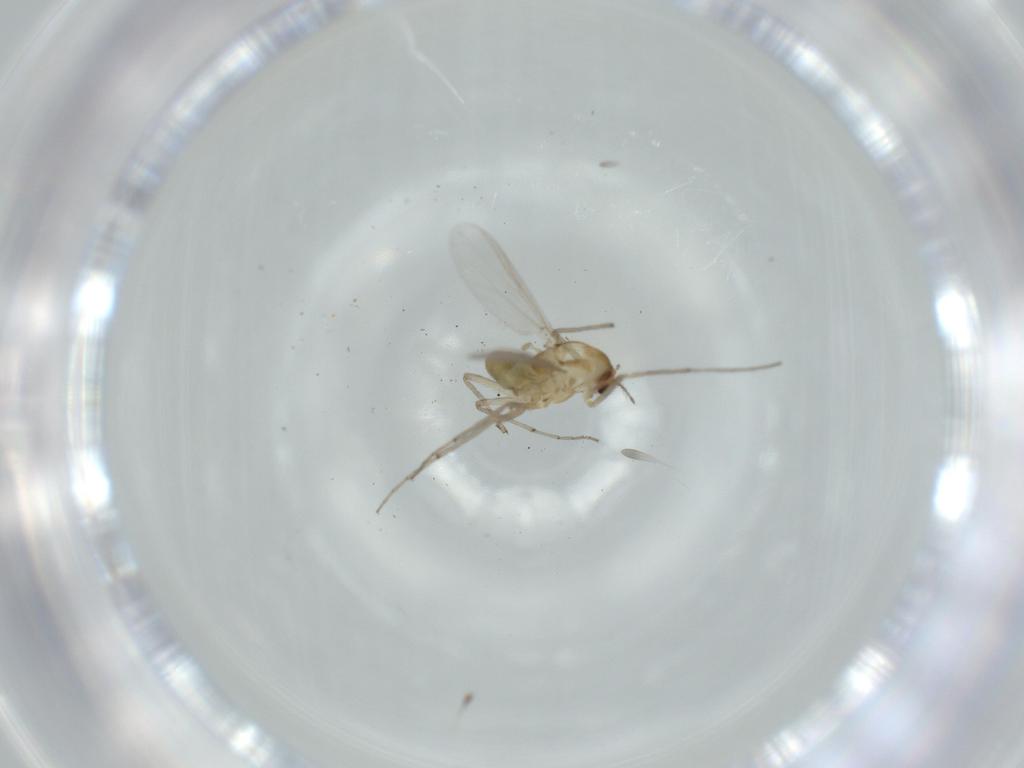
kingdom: Animalia
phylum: Arthropoda
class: Insecta
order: Diptera
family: Chironomidae
